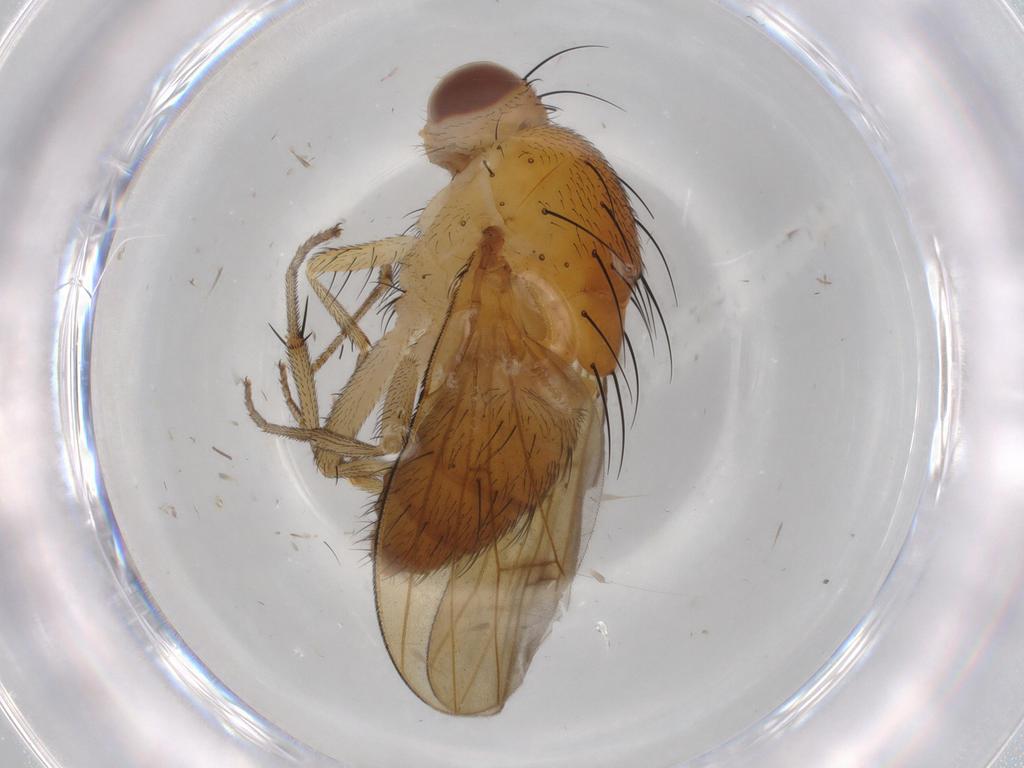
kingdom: Animalia
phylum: Arthropoda
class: Insecta
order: Diptera
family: Lauxaniidae
